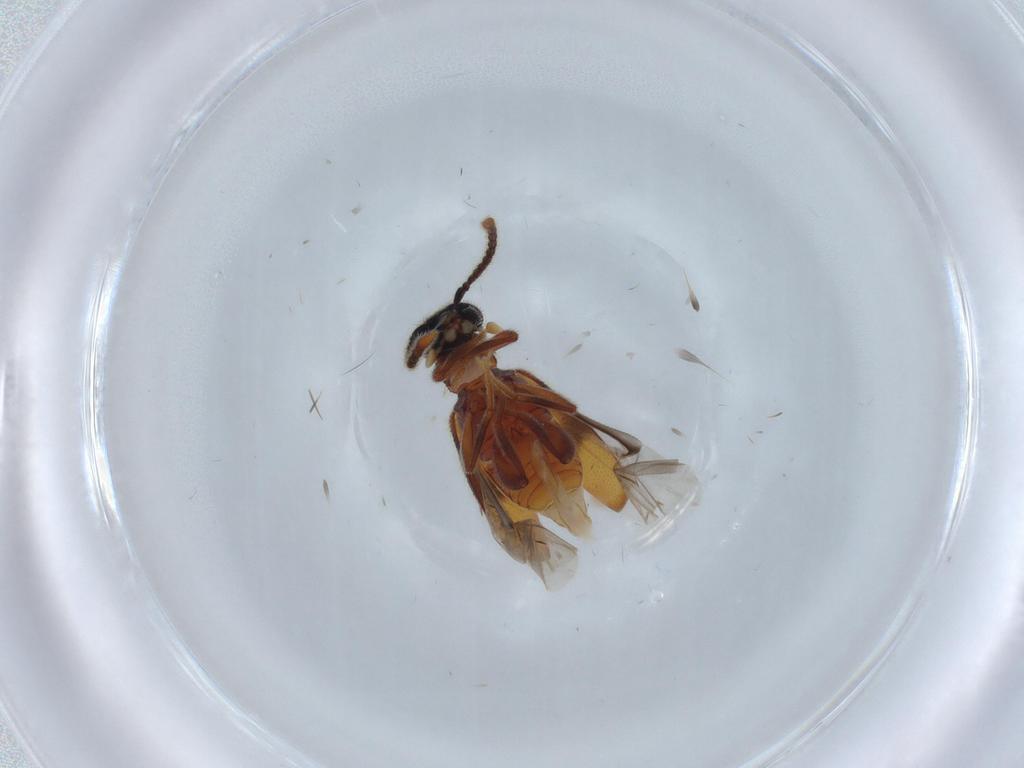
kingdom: Animalia
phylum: Arthropoda
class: Insecta
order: Coleoptera
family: Aderidae
